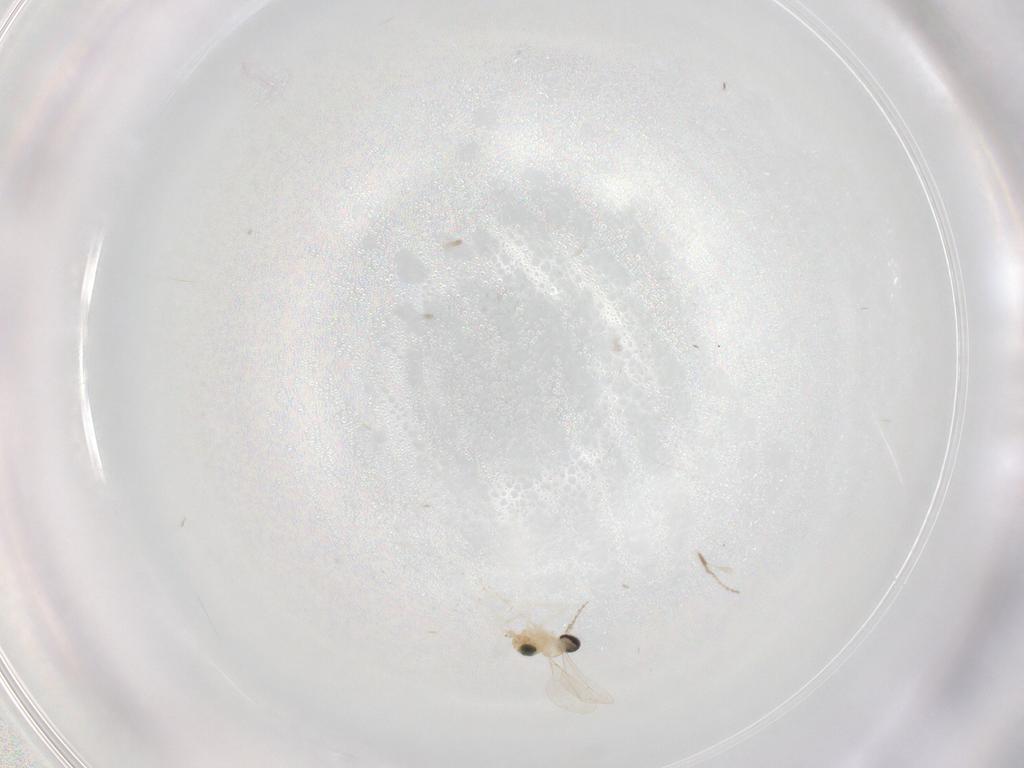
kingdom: Animalia
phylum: Arthropoda
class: Insecta
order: Diptera
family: Cecidomyiidae
